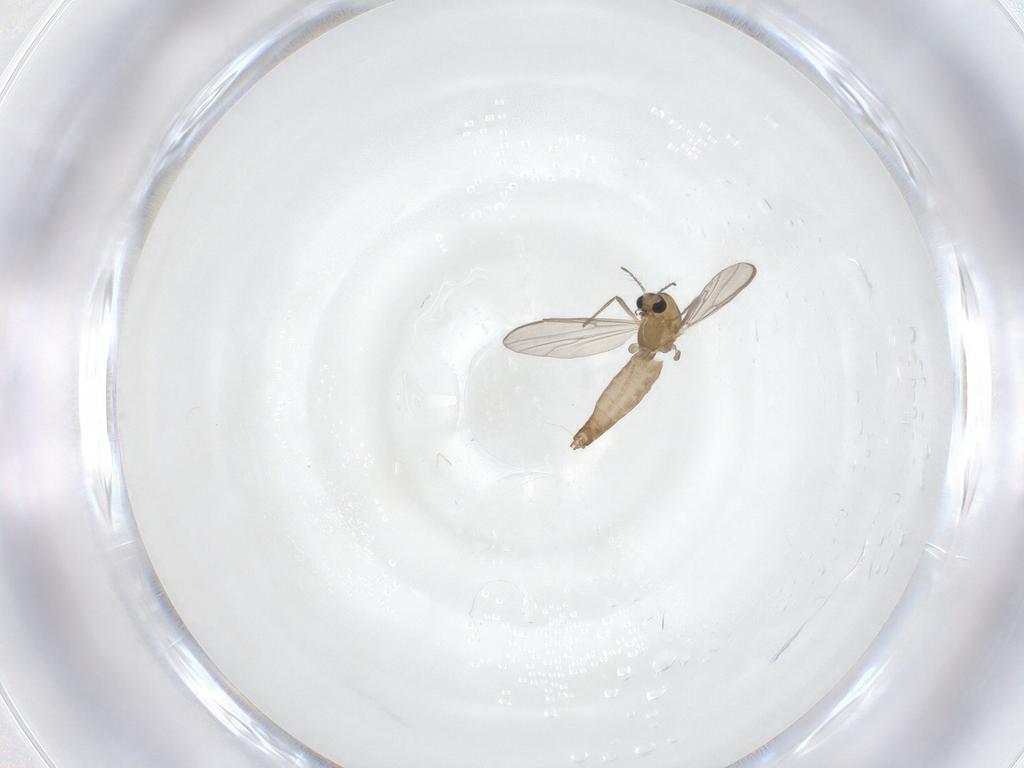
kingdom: Animalia
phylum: Arthropoda
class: Insecta
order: Diptera
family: Chironomidae
